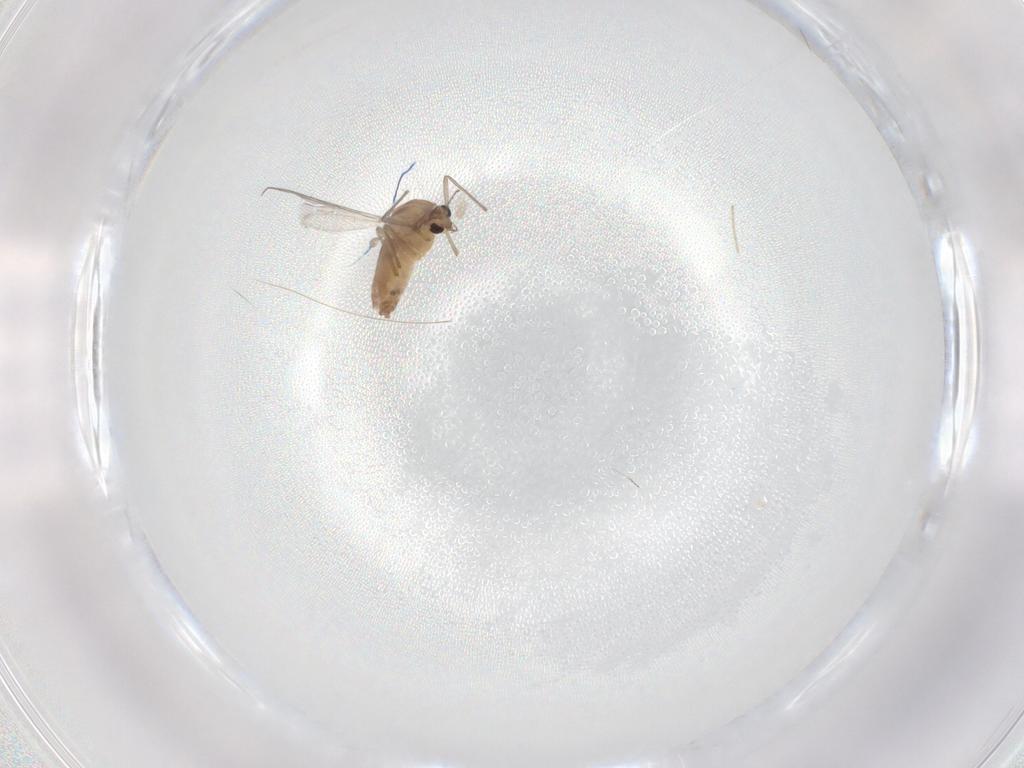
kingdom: Animalia
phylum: Arthropoda
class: Insecta
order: Diptera
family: Chironomidae
